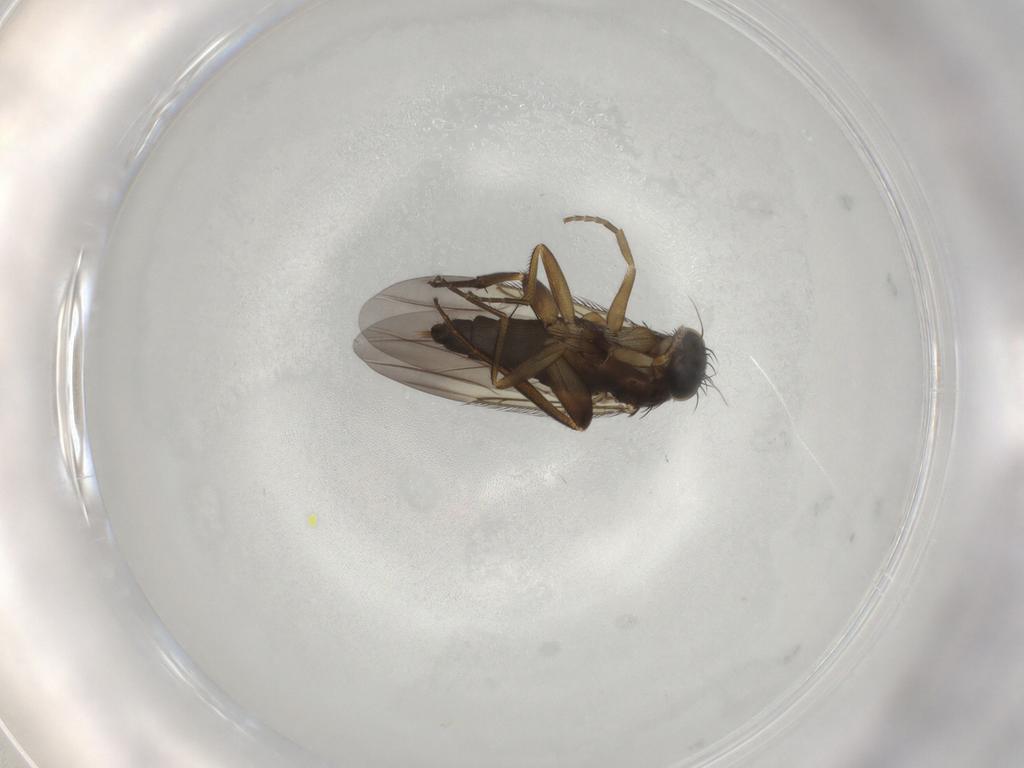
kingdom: Animalia
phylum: Arthropoda
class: Insecta
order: Diptera
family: Phoridae
